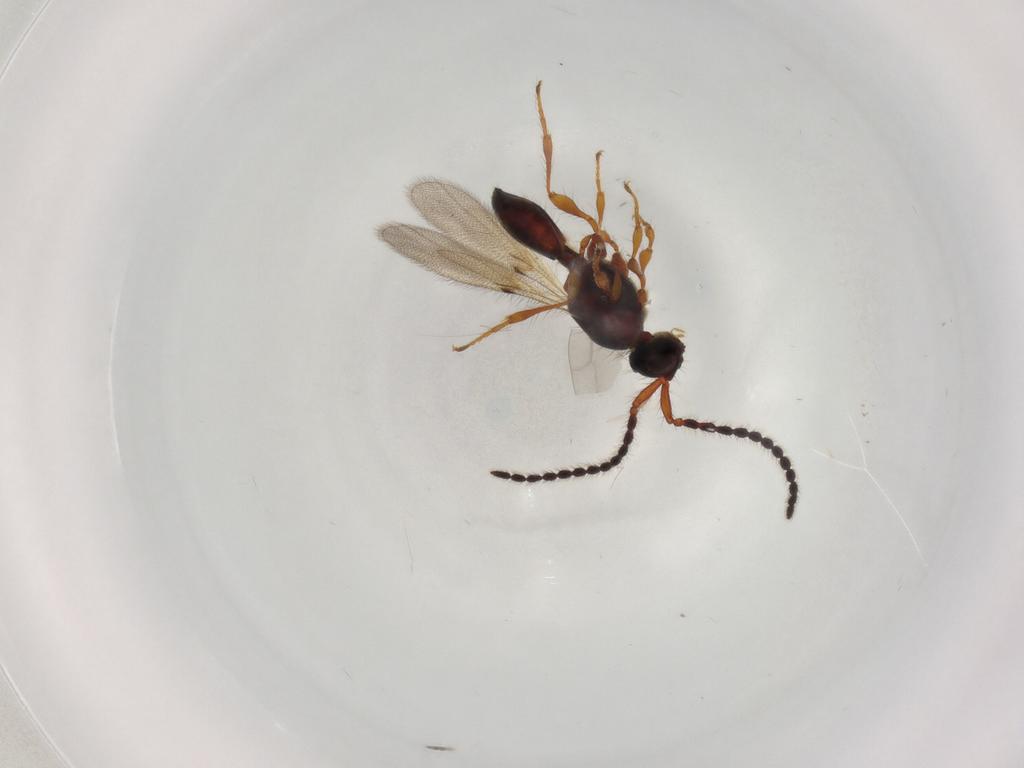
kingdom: Animalia
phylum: Arthropoda
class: Insecta
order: Hymenoptera
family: Diapriidae
